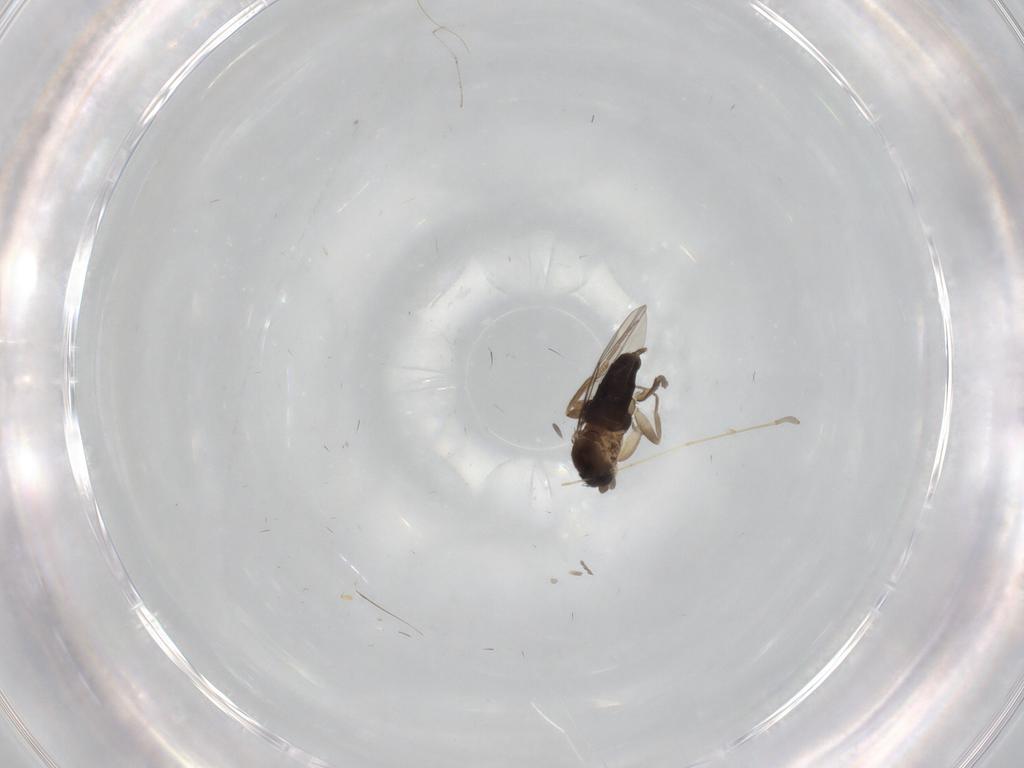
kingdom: Animalia
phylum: Arthropoda
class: Insecta
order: Diptera
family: Phoridae
